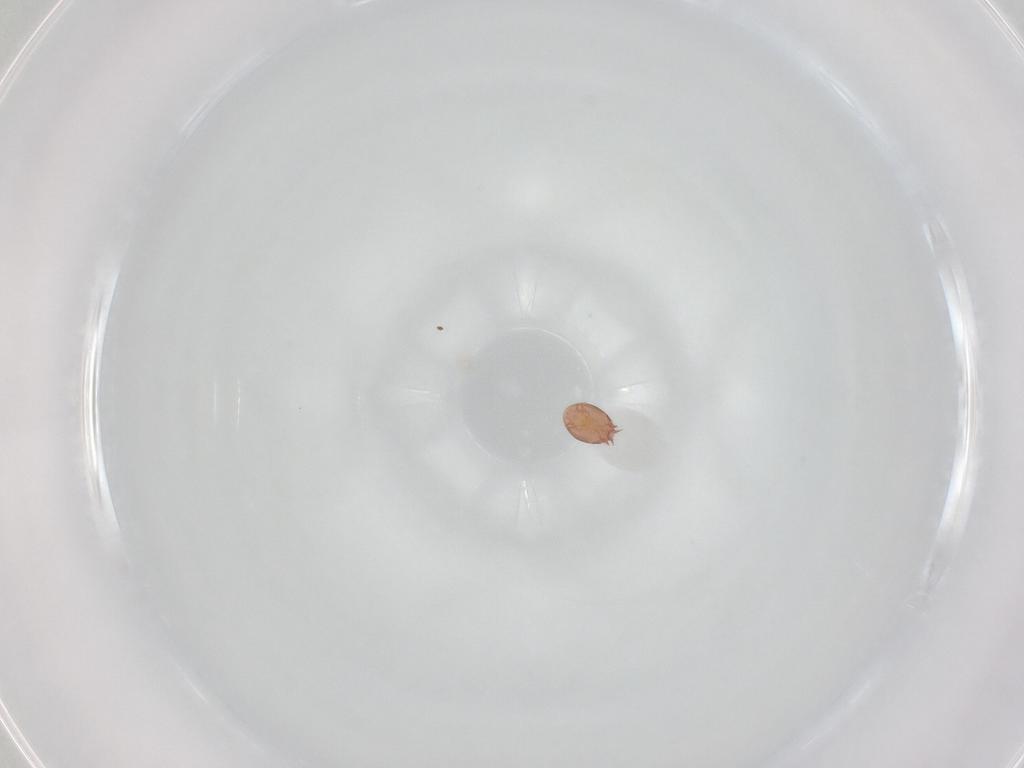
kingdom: Animalia
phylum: Arthropoda
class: Arachnida
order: Sarcoptiformes
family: Acaridae
